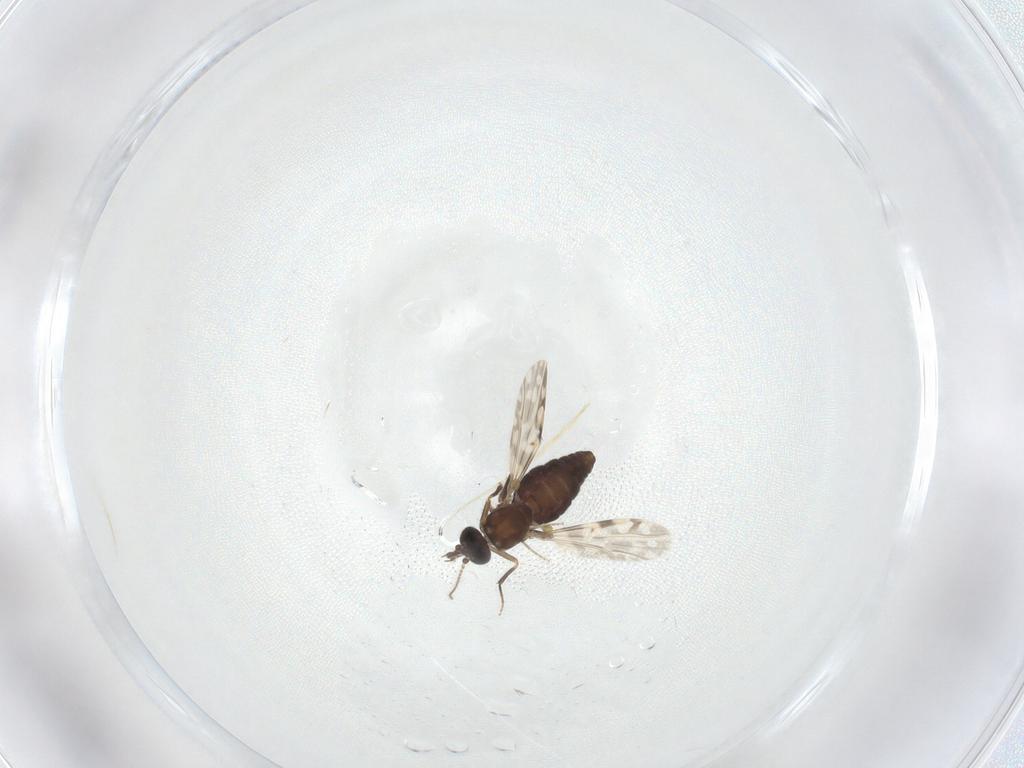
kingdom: Animalia
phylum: Arthropoda
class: Insecta
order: Diptera
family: Limoniidae
